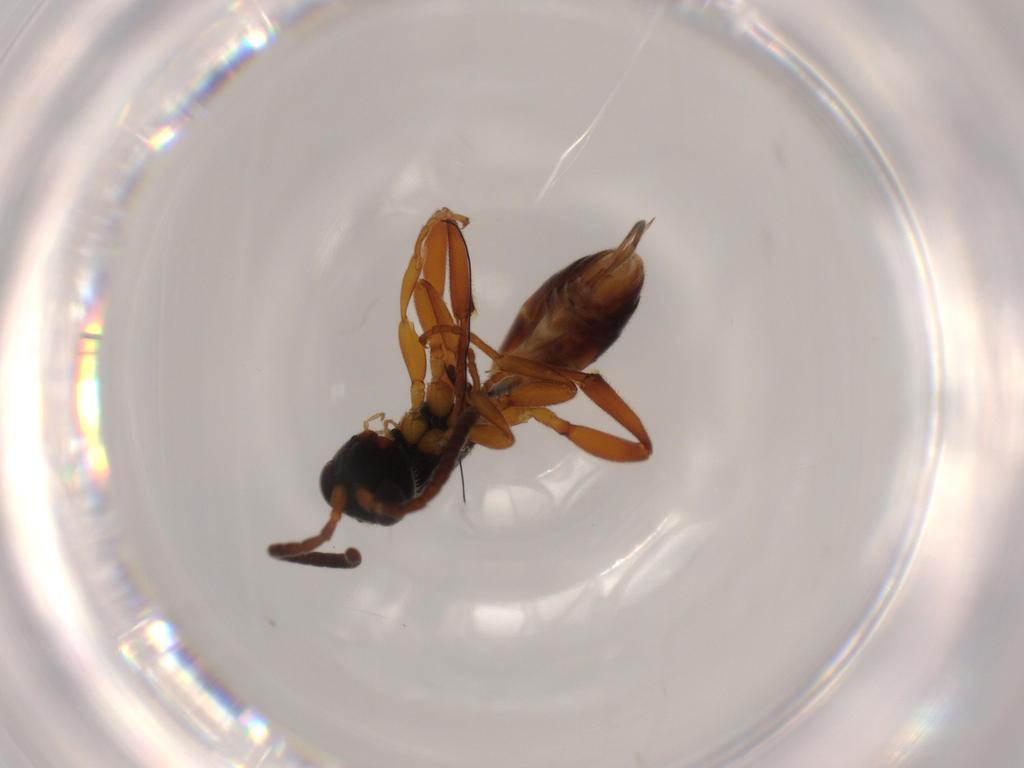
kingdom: Animalia
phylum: Arthropoda
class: Insecta
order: Hymenoptera
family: Ichneumonidae
